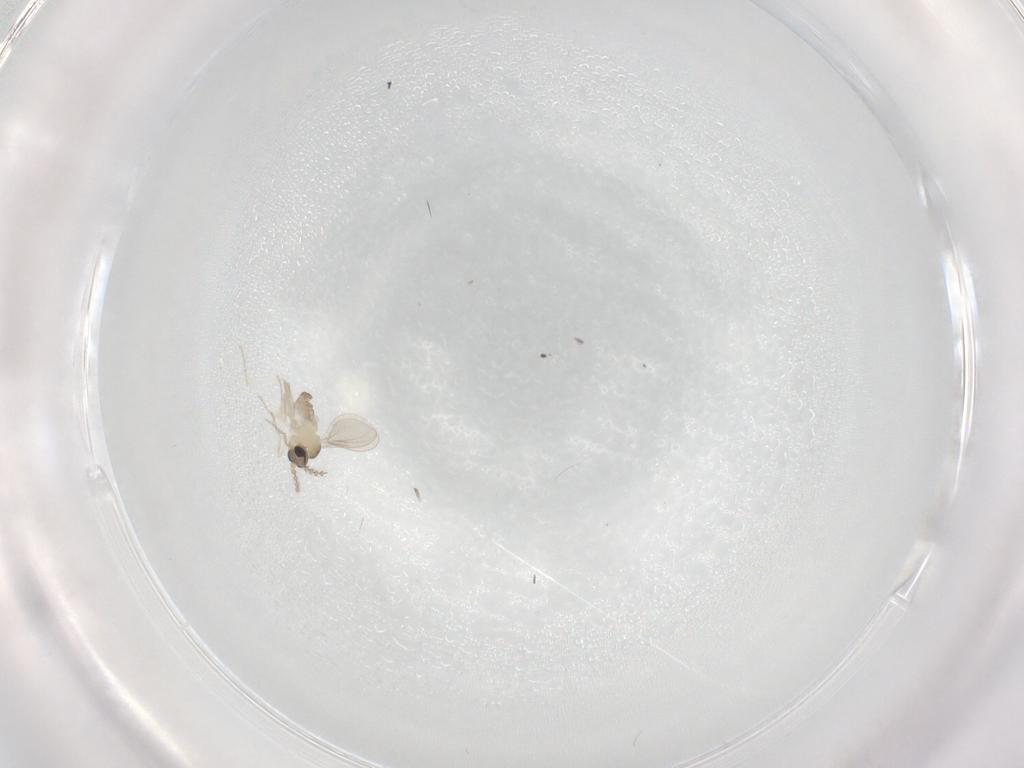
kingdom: Animalia
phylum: Arthropoda
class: Insecta
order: Diptera
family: Cecidomyiidae
